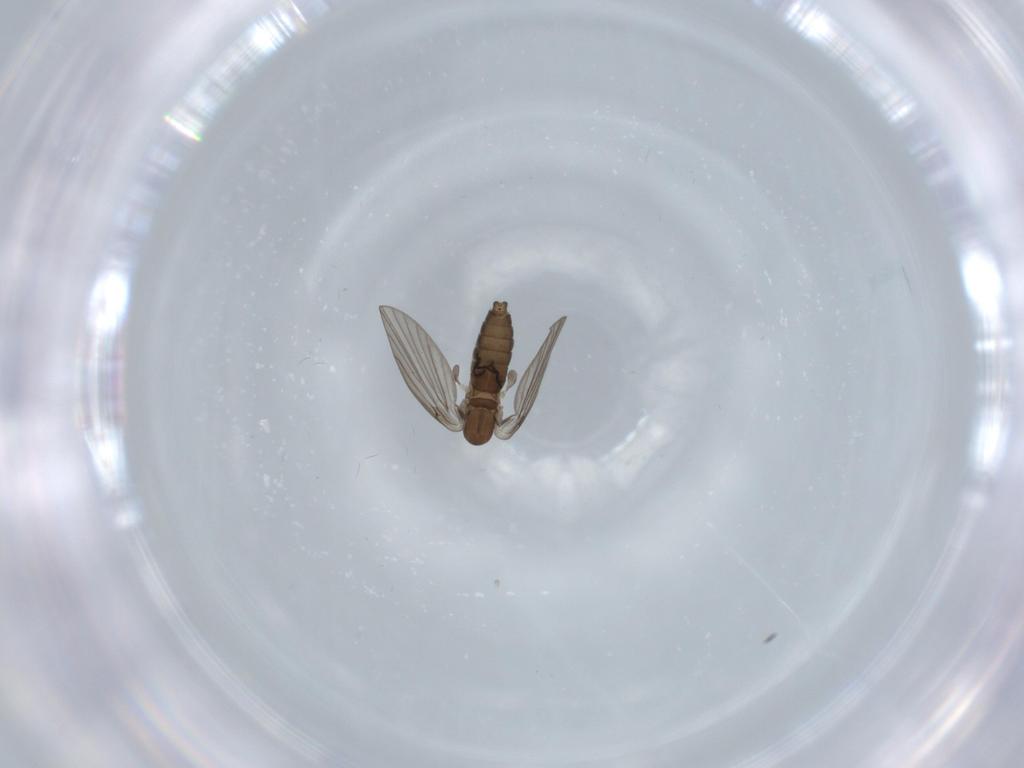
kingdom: Animalia
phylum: Arthropoda
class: Insecta
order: Diptera
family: Psychodidae
